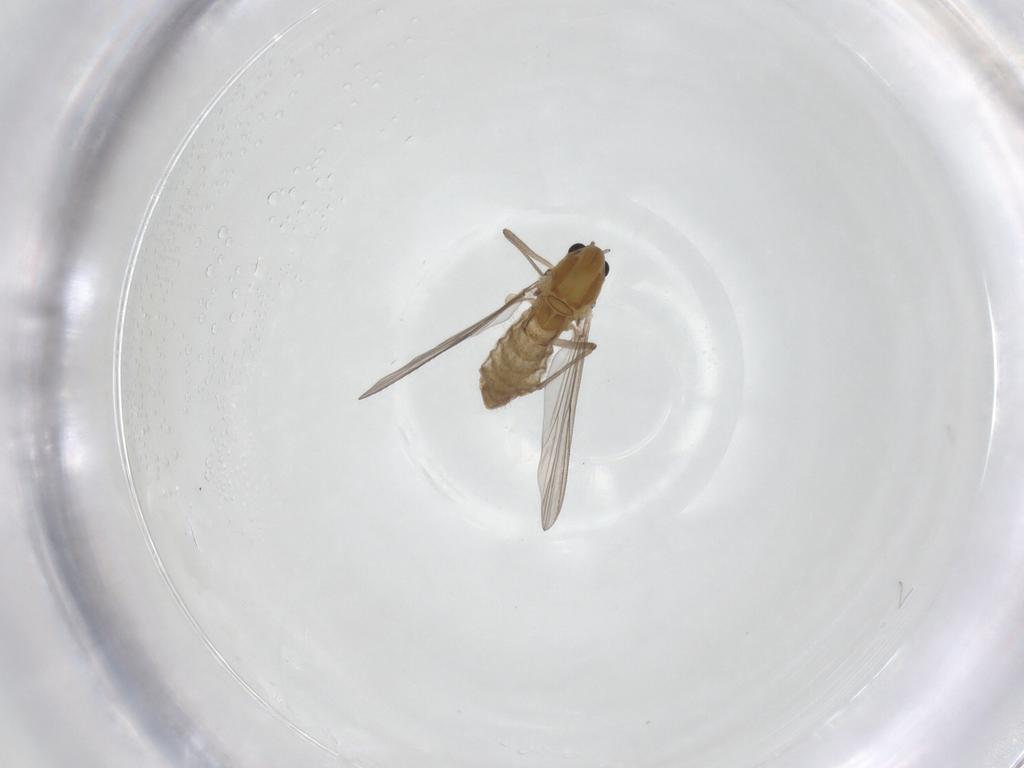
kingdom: Animalia
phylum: Arthropoda
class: Insecta
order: Diptera
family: Chironomidae
